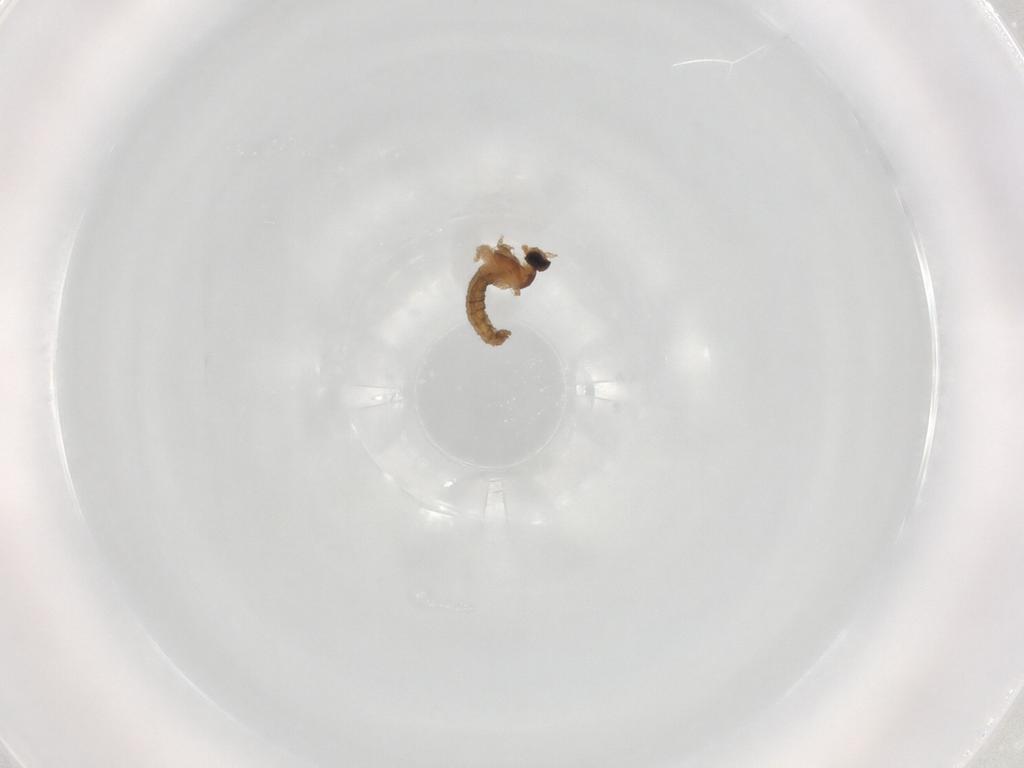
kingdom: Animalia
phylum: Arthropoda
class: Insecta
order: Diptera
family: Cecidomyiidae
